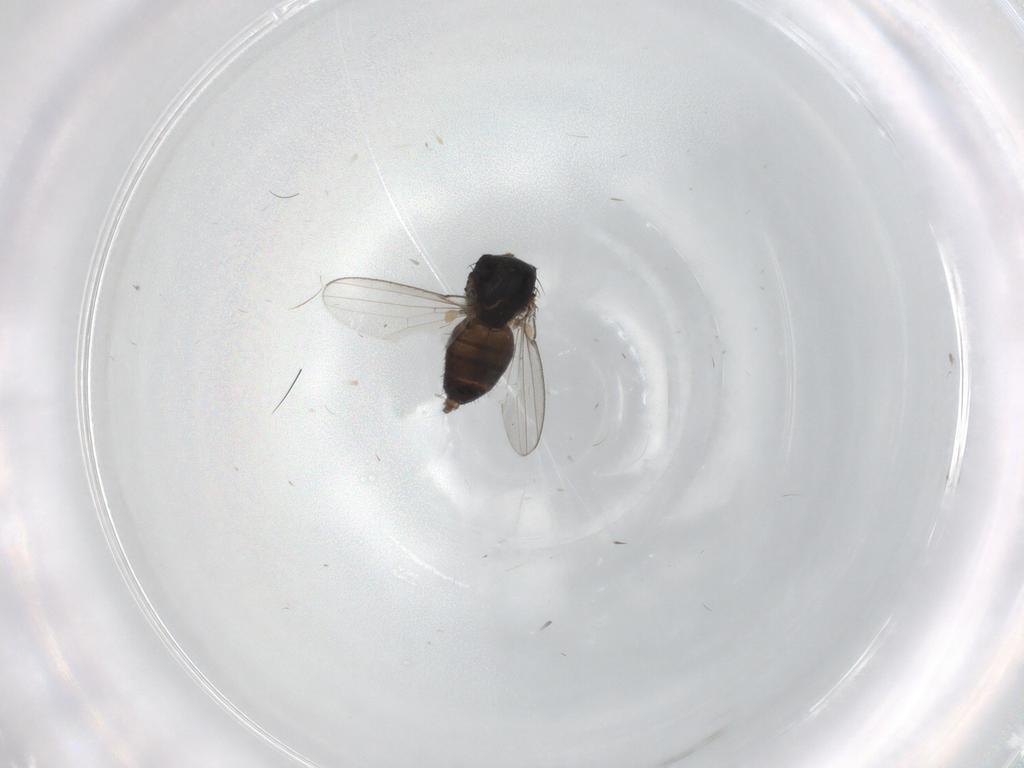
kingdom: Animalia
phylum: Arthropoda
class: Insecta
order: Diptera
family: Milichiidae
